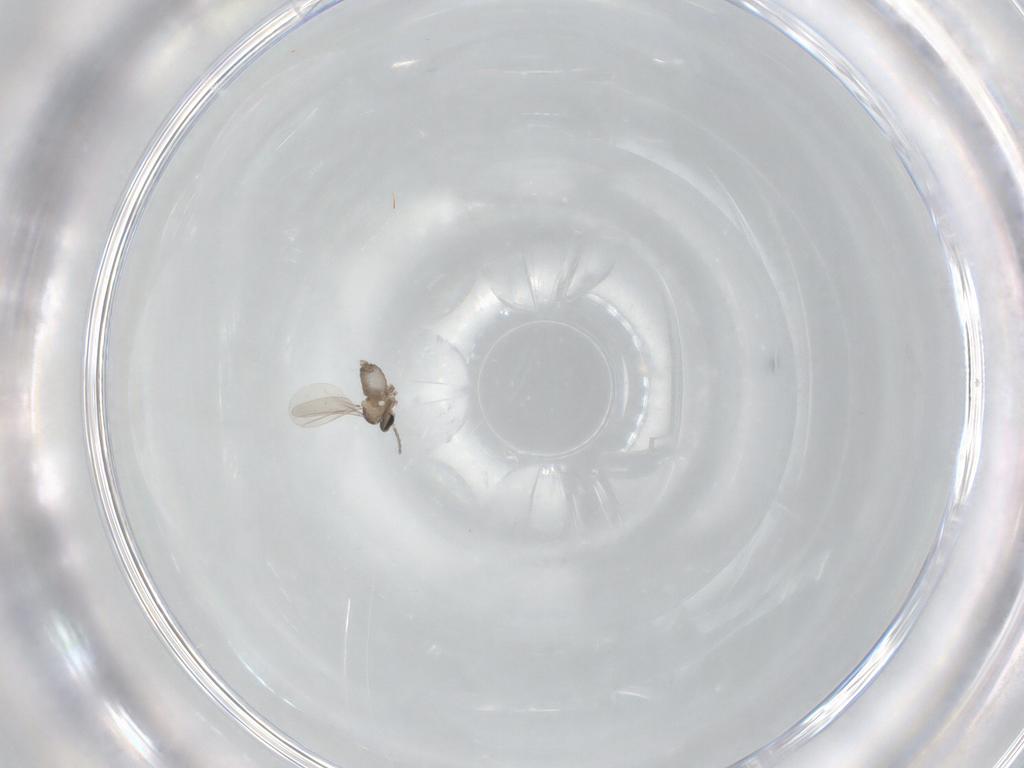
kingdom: Animalia
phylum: Arthropoda
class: Insecta
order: Diptera
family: Cecidomyiidae
